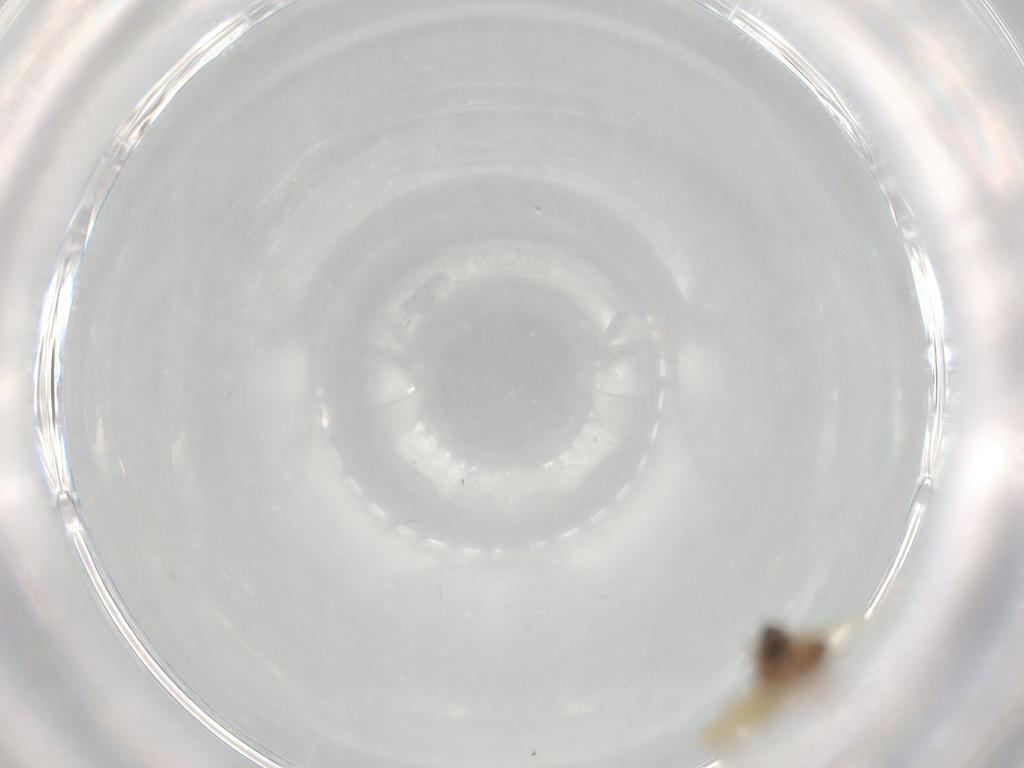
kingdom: Animalia
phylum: Arthropoda
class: Insecta
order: Diptera
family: Chironomidae
